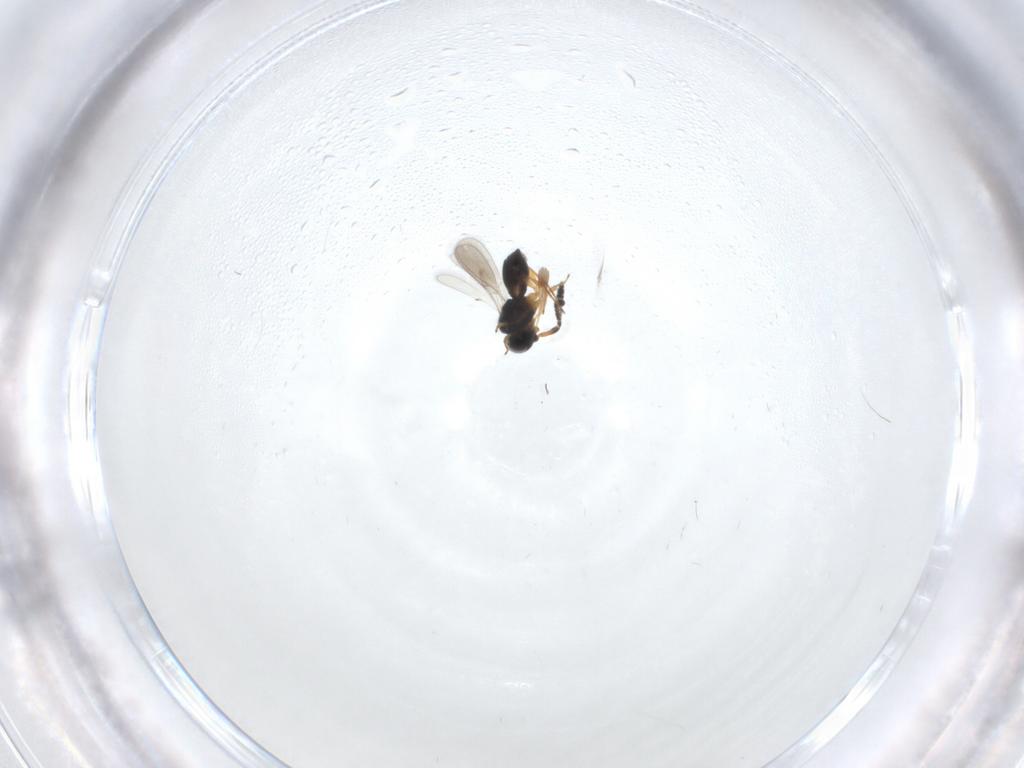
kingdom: Animalia
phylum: Arthropoda
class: Insecta
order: Hymenoptera
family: Scelionidae
